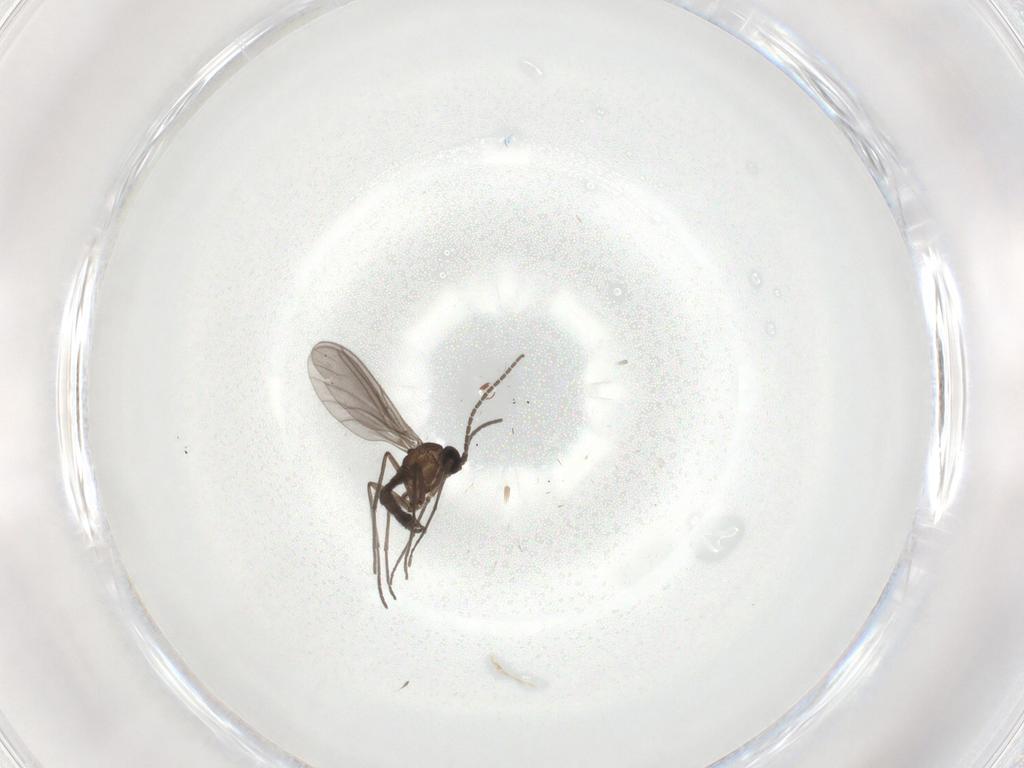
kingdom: Animalia
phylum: Arthropoda
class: Insecta
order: Diptera
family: Sciaridae
